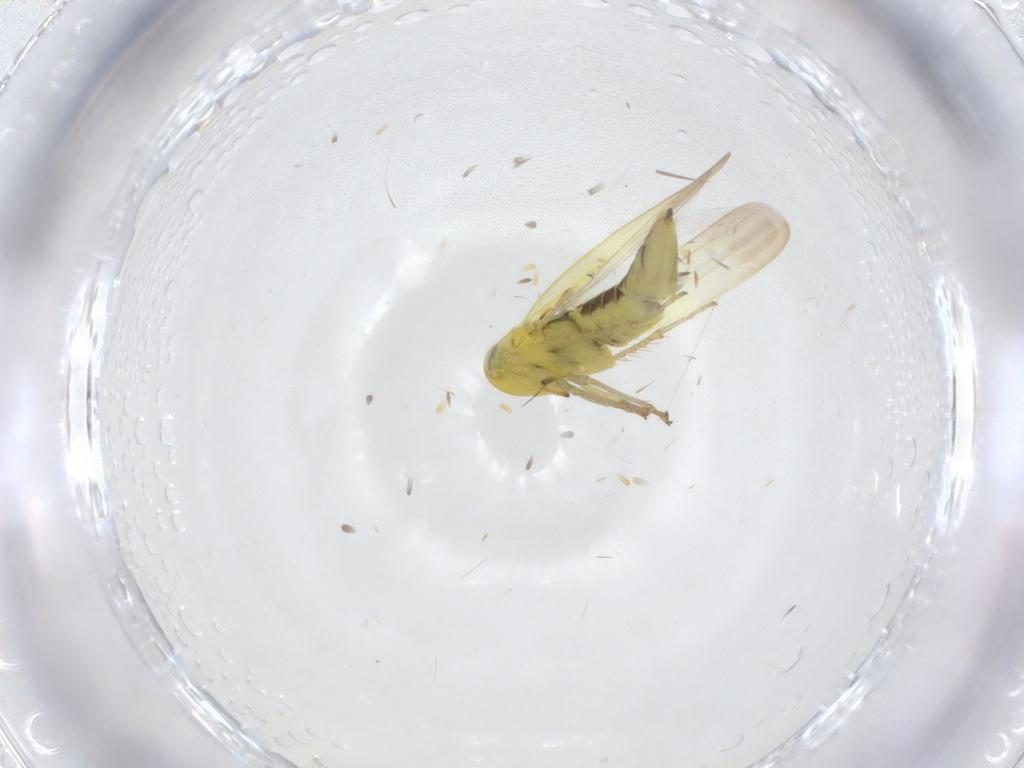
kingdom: Animalia
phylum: Arthropoda
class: Insecta
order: Hemiptera
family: Cicadellidae
